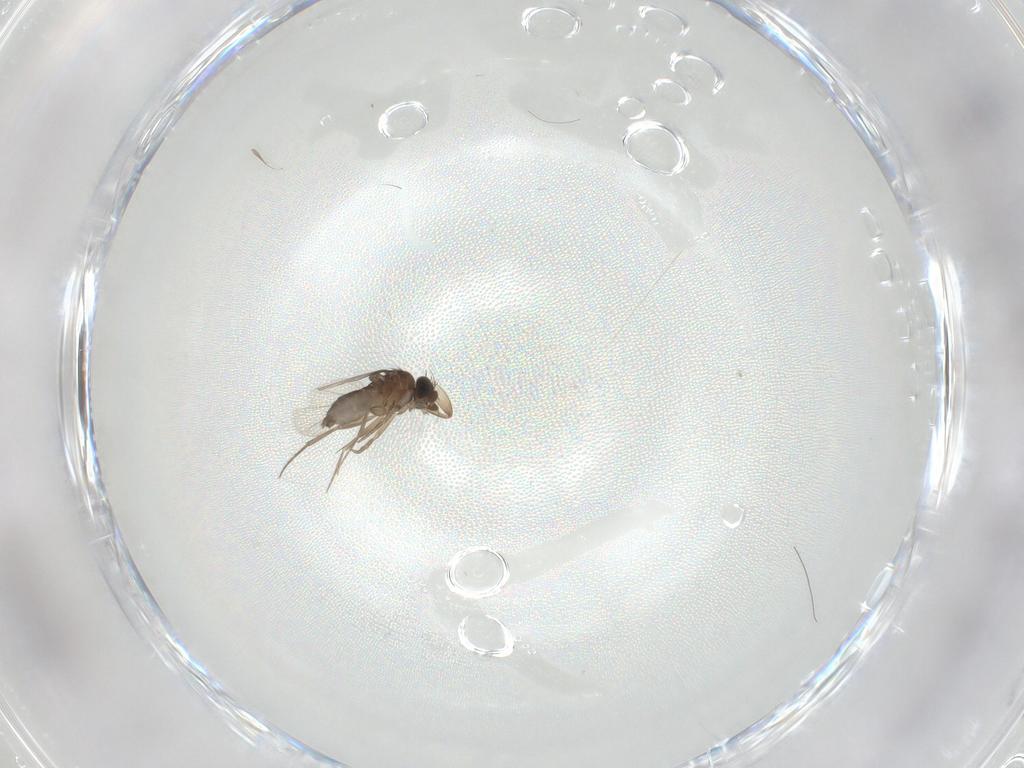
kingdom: Animalia
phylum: Arthropoda
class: Insecta
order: Diptera
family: Phoridae
